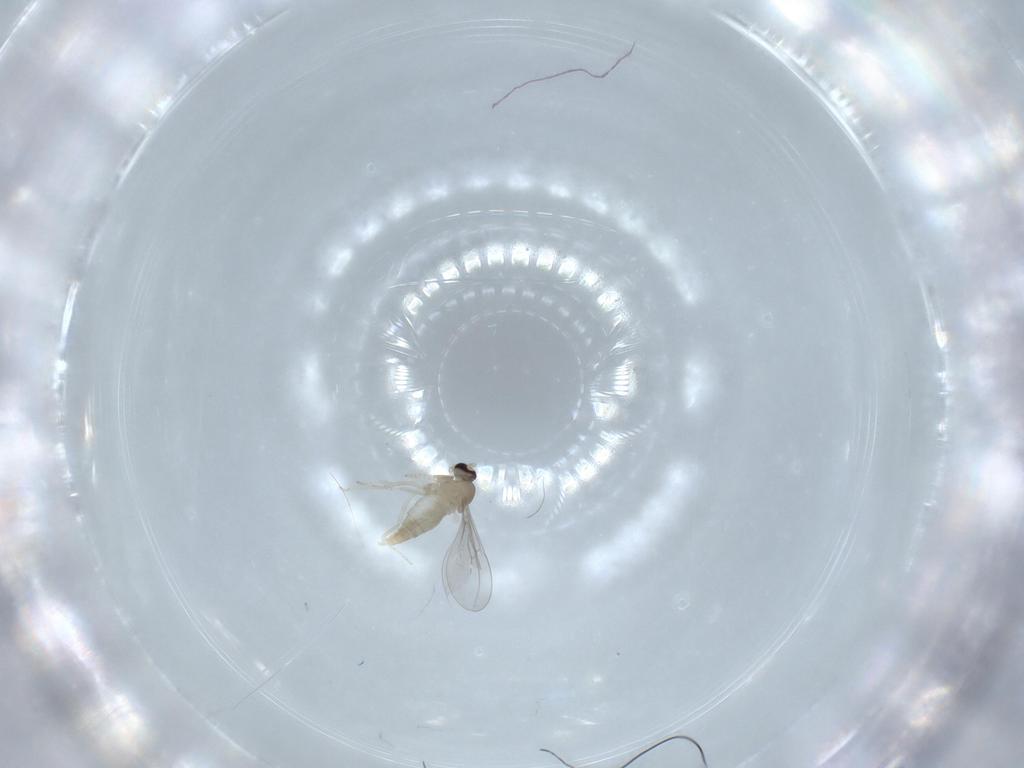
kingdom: Animalia
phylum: Arthropoda
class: Insecta
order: Diptera
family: Cecidomyiidae
